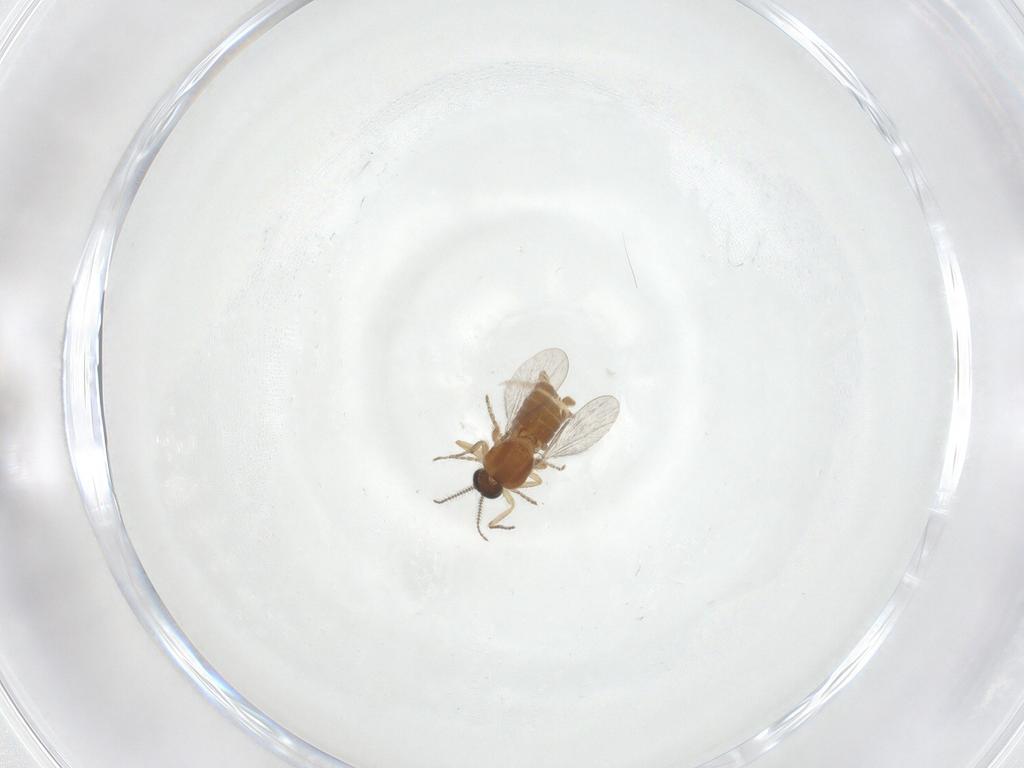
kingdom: Animalia
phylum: Arthropoda
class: Insecta
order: Diptera
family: Ceratopogonidae
